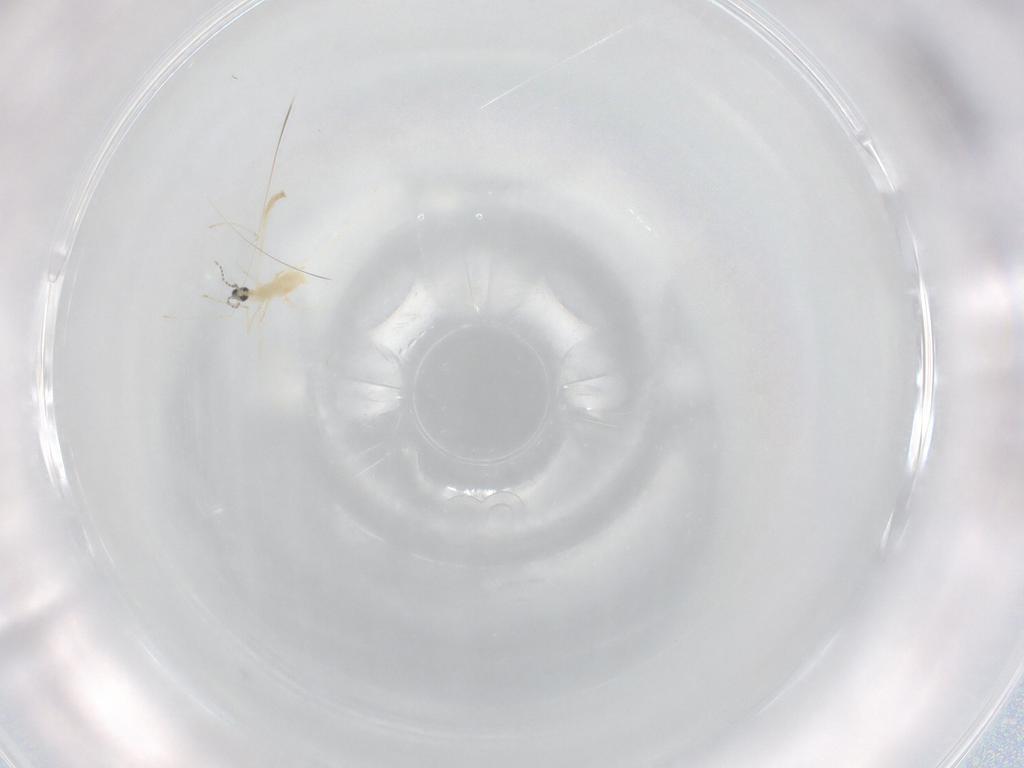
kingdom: Animalia
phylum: Arthropoda
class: Insecta
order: Diptera
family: Cecidomyiidae
